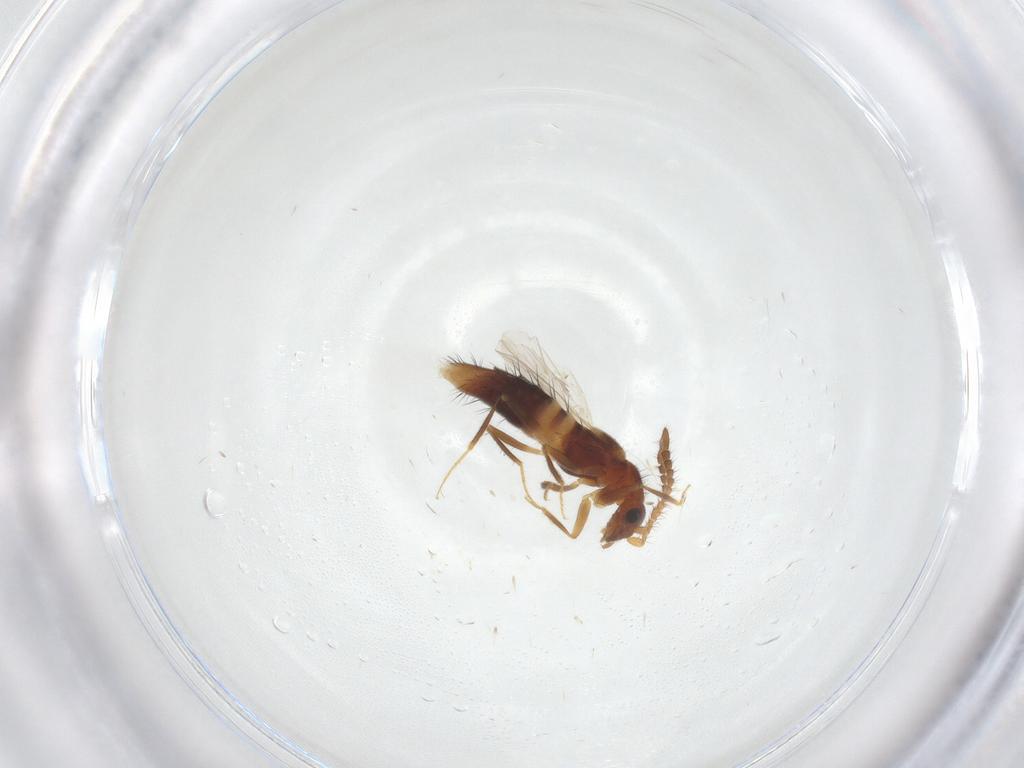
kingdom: Animalia
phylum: Arthropoda
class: Insecta
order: Coleoptera
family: Staphylinidae
